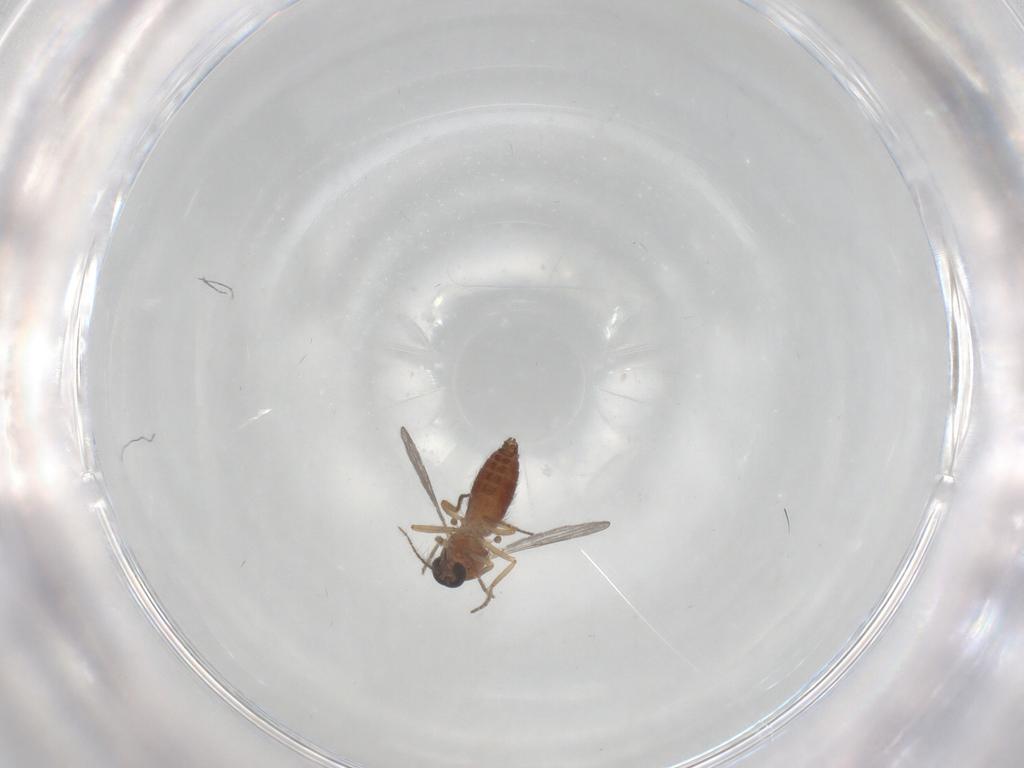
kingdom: Animalia
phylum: Arthropoda
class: Insecta
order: Diptera
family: Ceratopogonidae
